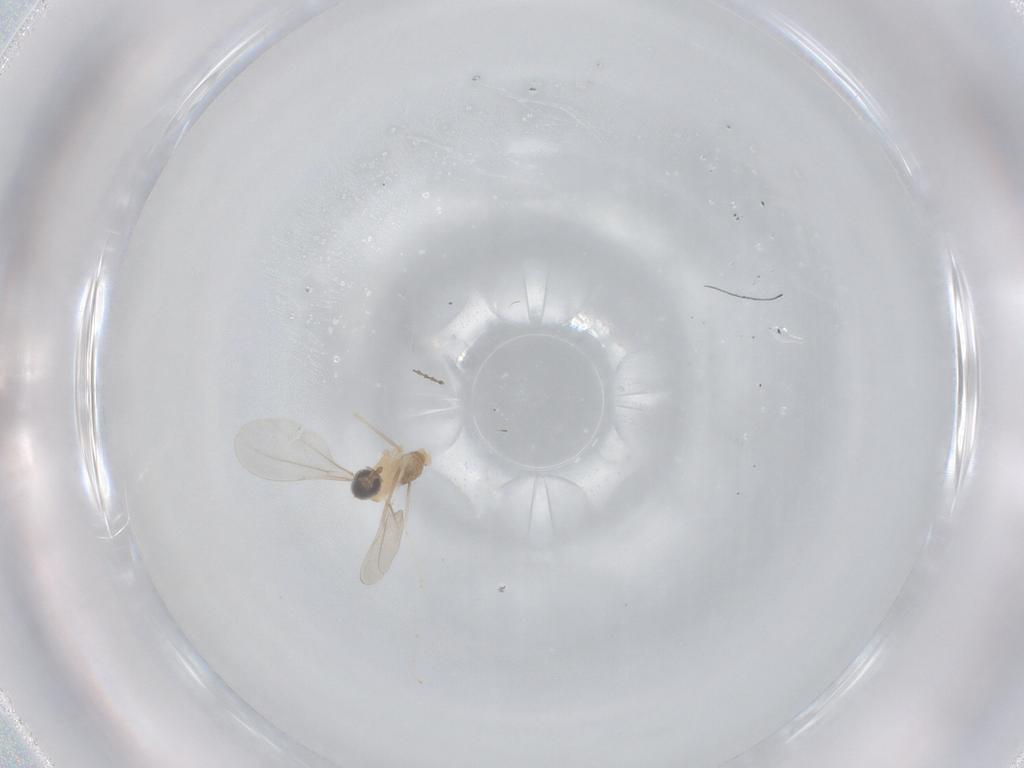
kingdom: Animalia
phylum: Arthropoda
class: Insecta
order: Diptera
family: Cecidomyiidae
